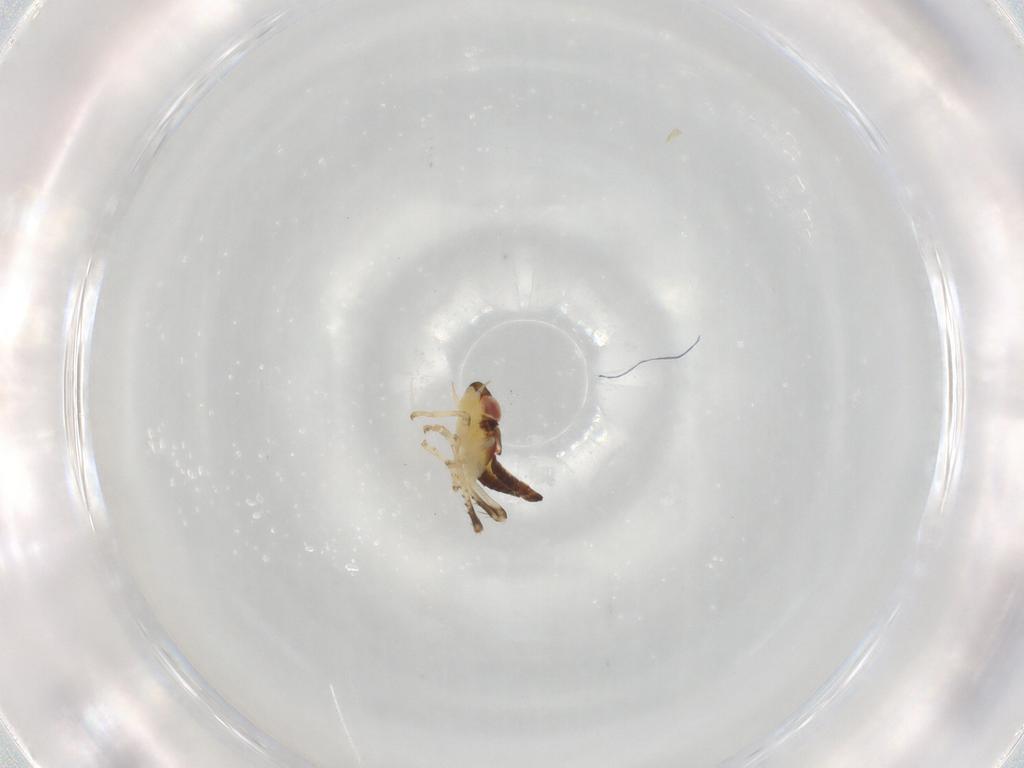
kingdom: Animalia
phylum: Arthropoda
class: Insecta
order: Hemiptera
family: Cicadellidae
